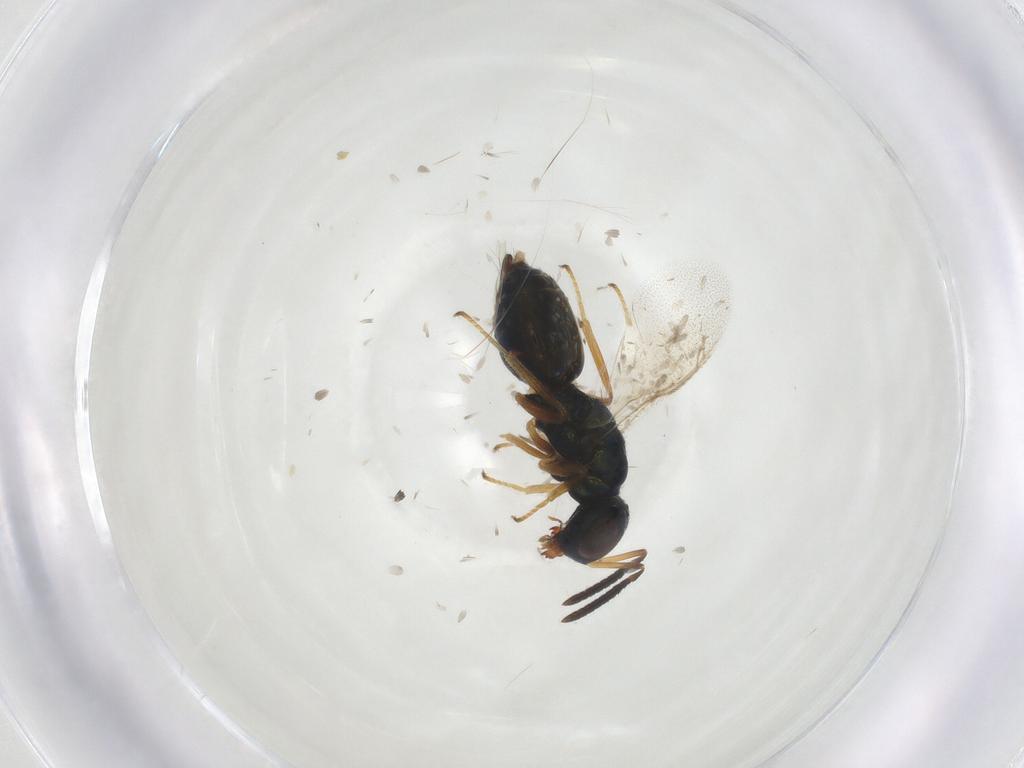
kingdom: Animalia
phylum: Arthropoda
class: Insecta
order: Hymenoptera
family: Pteromalidae
